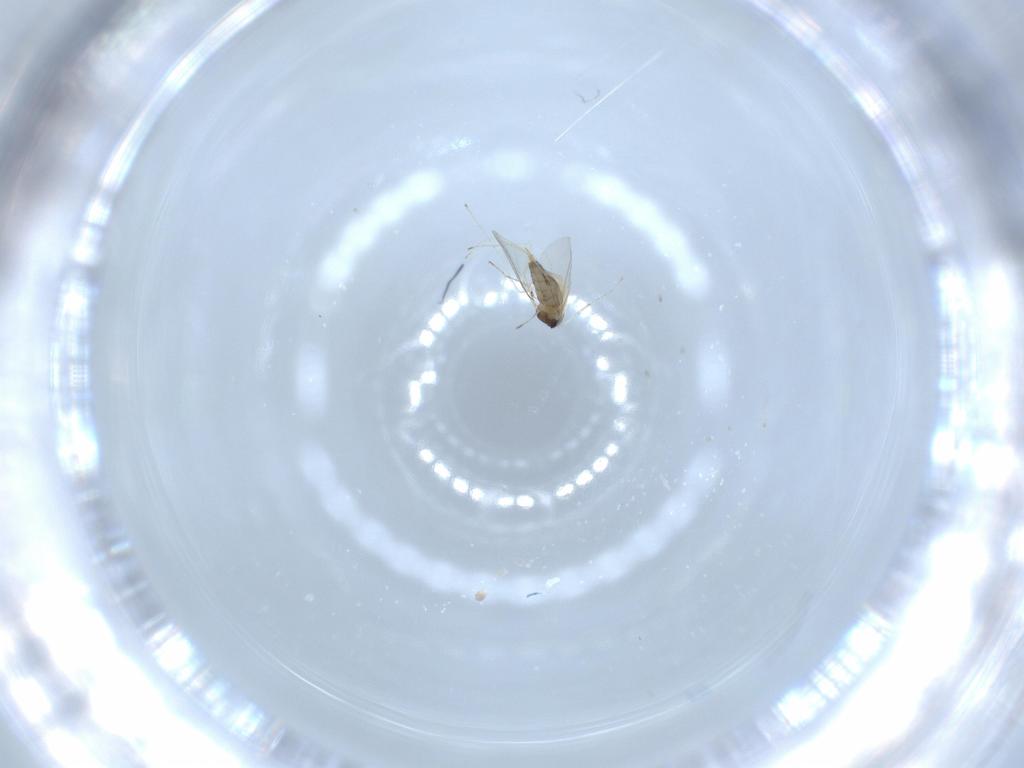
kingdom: Animalia
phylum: Arthropoda
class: Insecta
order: Diptera
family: Cecidomyiidae
